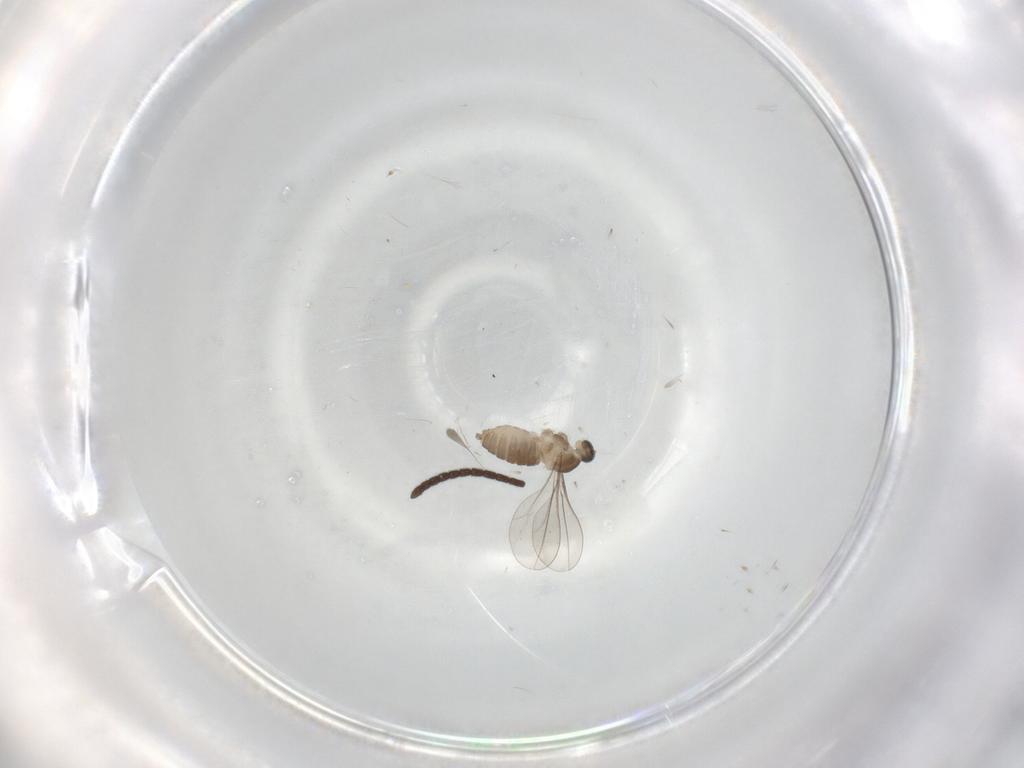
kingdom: Animalia
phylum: Arthropoda
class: Insecta
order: Diptera
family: Cecidomyiidae
